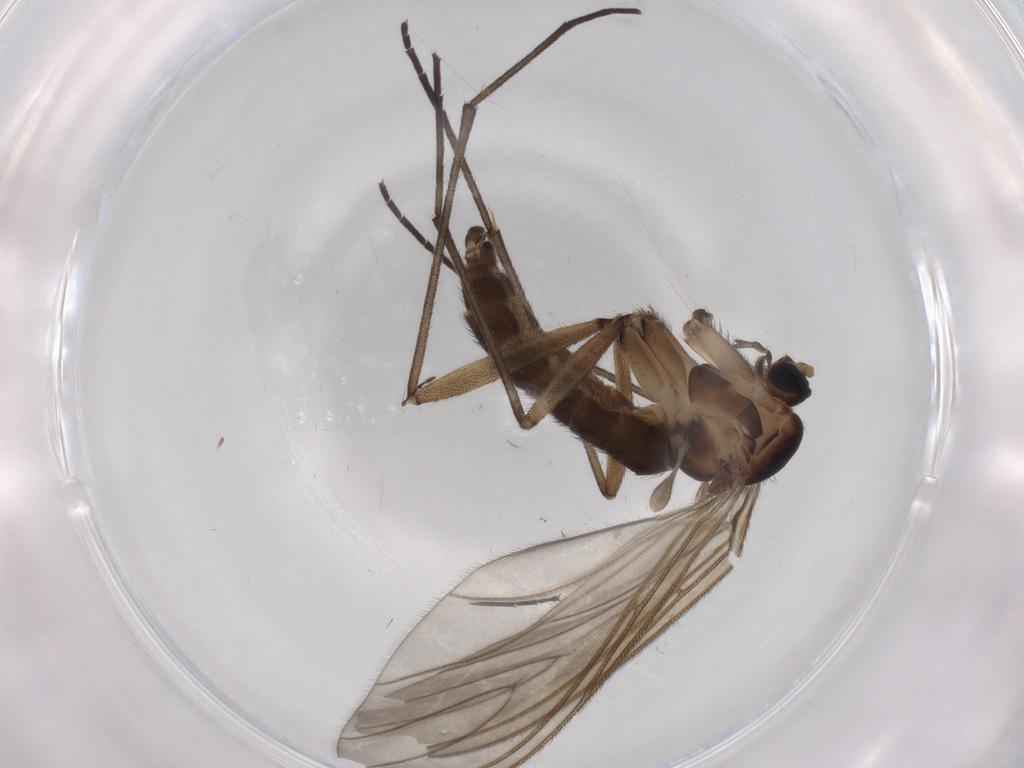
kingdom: Animalia
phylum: Arthropoda
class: Insecta
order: Diptera
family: Sciaridae
